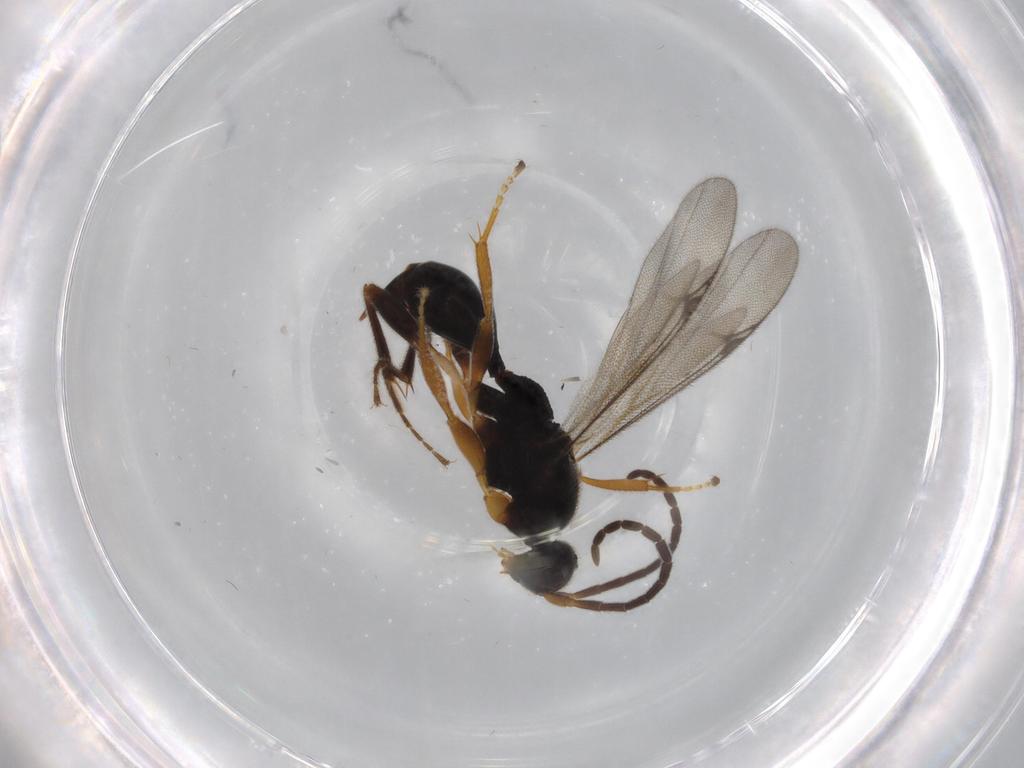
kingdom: Animalia
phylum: Arthropoda
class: Insecta
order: Hymenoptera
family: Proctotrupidae
